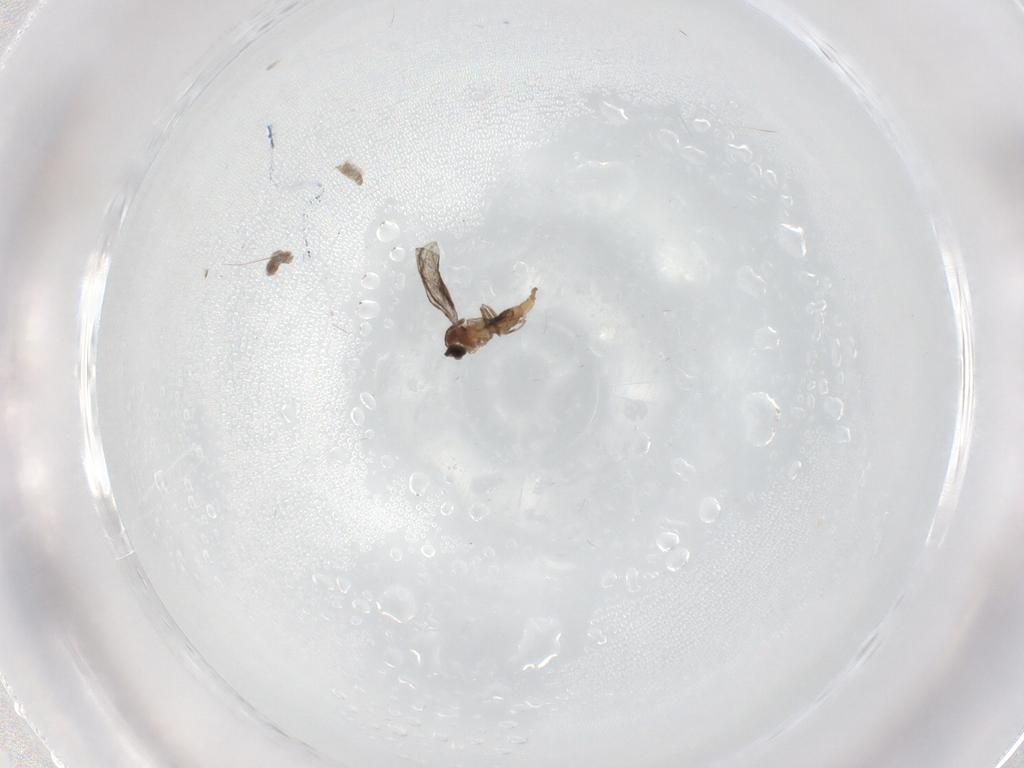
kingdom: Animalia
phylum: Arthropoda
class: Insecta
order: Diptera
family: Cecidomyiidae
